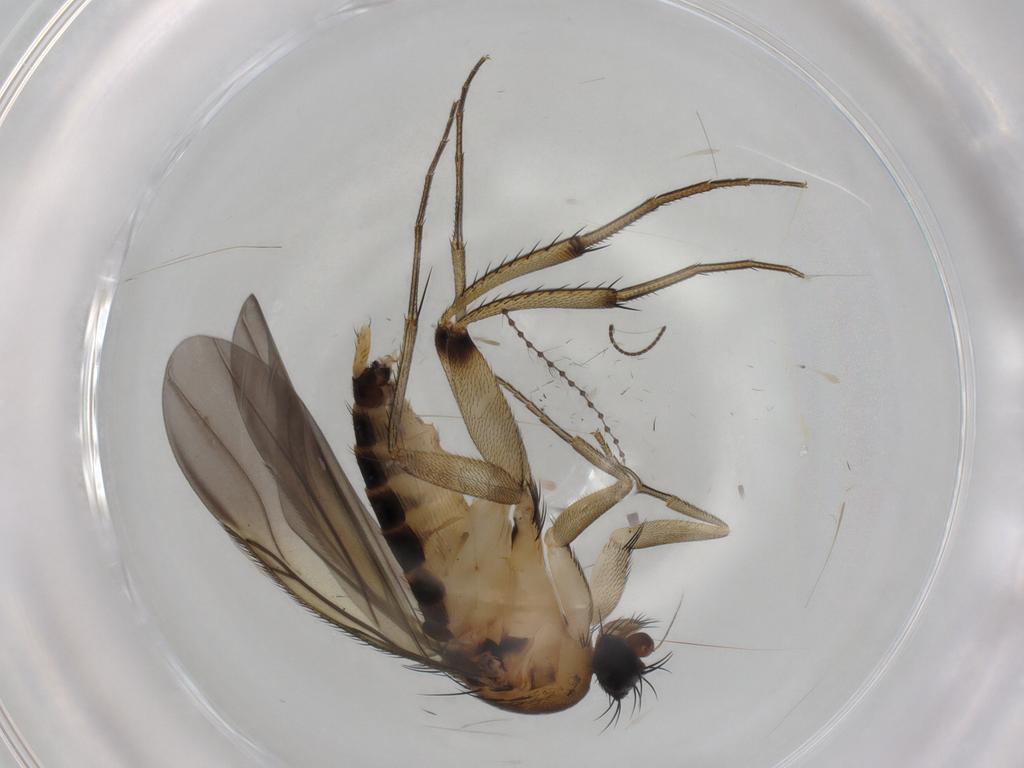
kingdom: Animalia
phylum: Arthropoda
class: Insecta
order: Diptera
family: Phoridae
